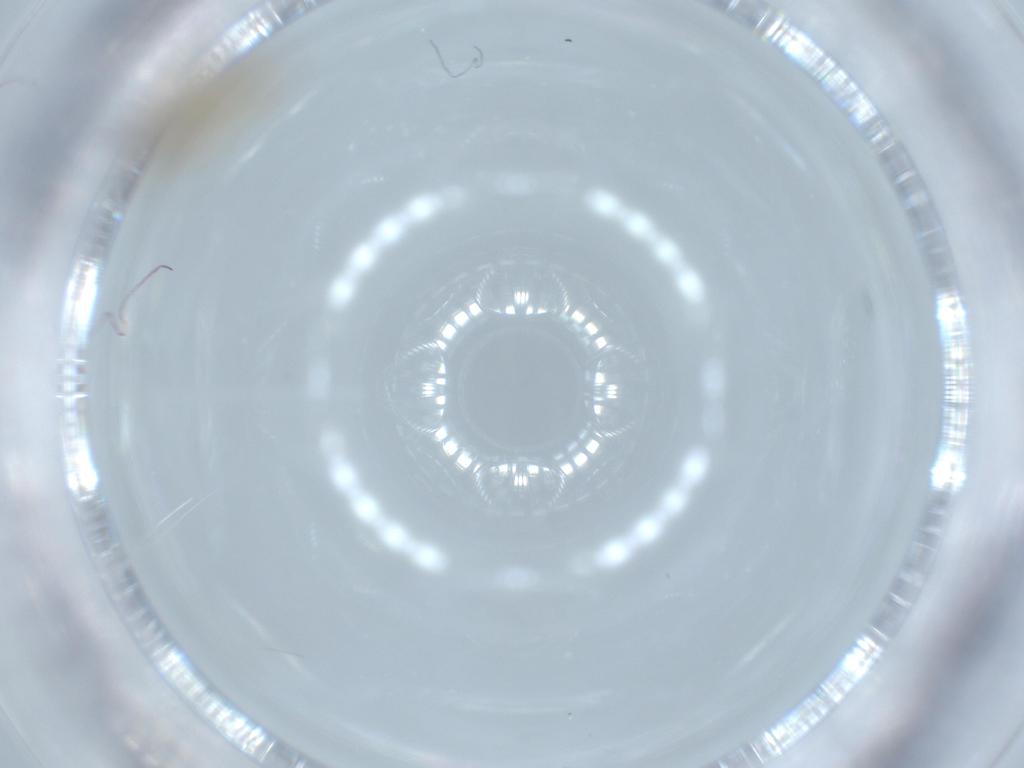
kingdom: Animalia
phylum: Arthropoda
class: Insecta
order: Diptera
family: Cecidomyiidae
